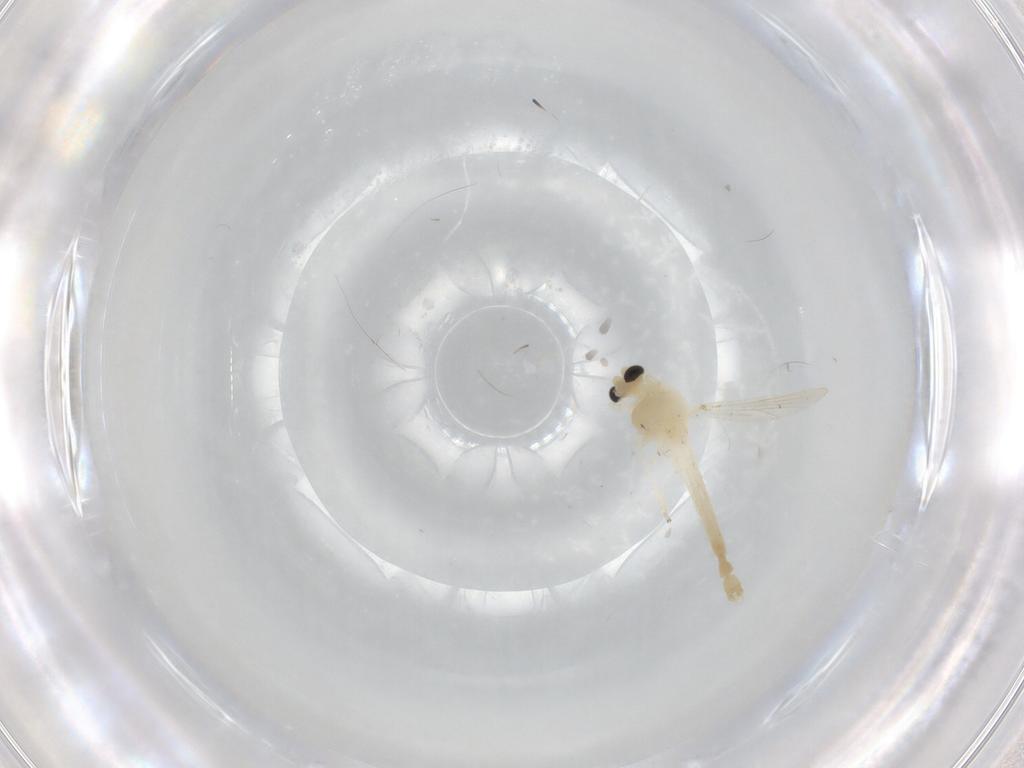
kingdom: Animalia
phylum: Arthropoda
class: Insecta
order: Diptera
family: Chironomidae
